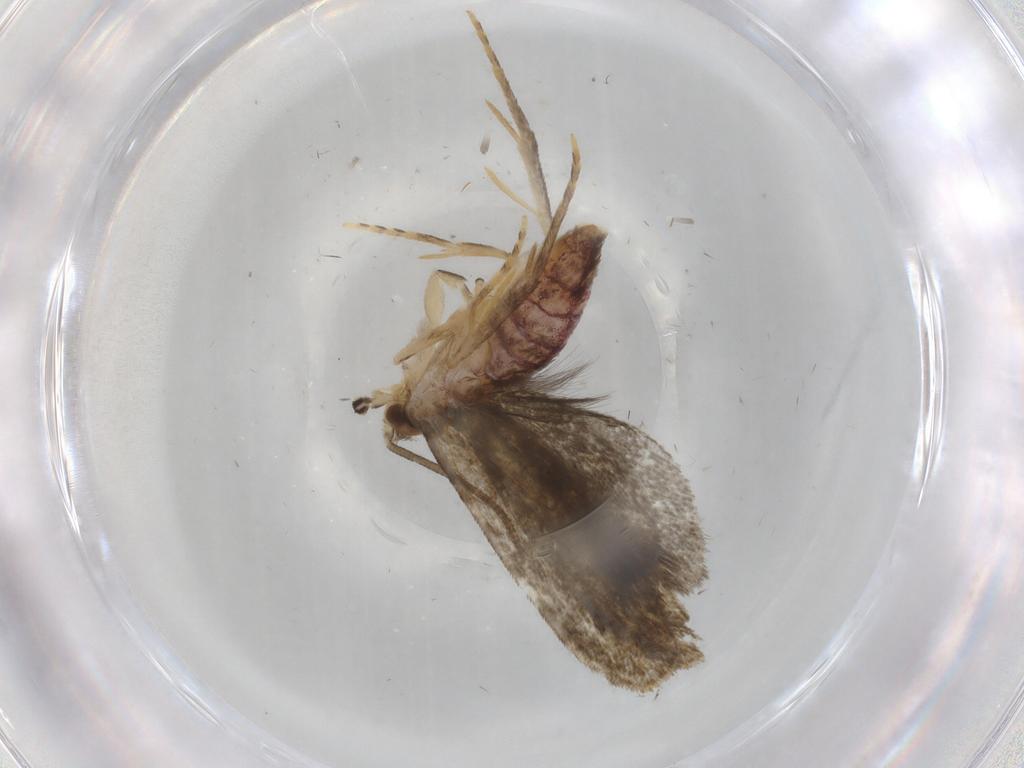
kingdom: Animalia
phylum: Arthropoda
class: Insecta
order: Lepidoptera
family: Dryadaulidae
